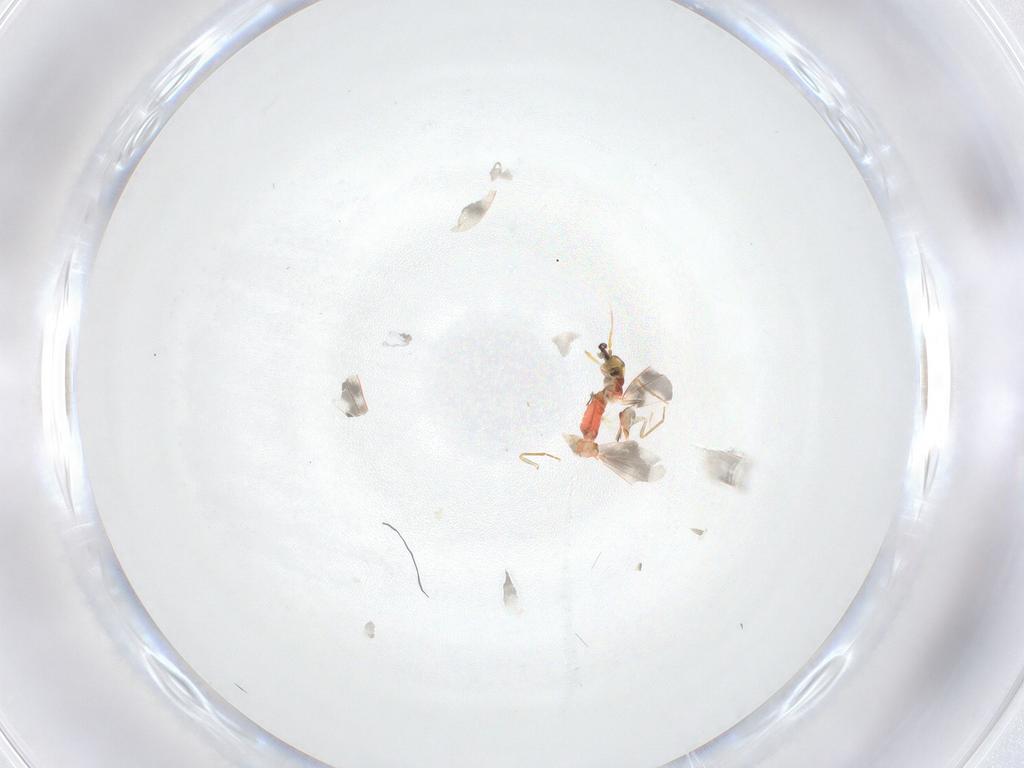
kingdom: Animalia
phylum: Arthropoda
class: Insecta
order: Hemiptera
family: Aleyrodidae
